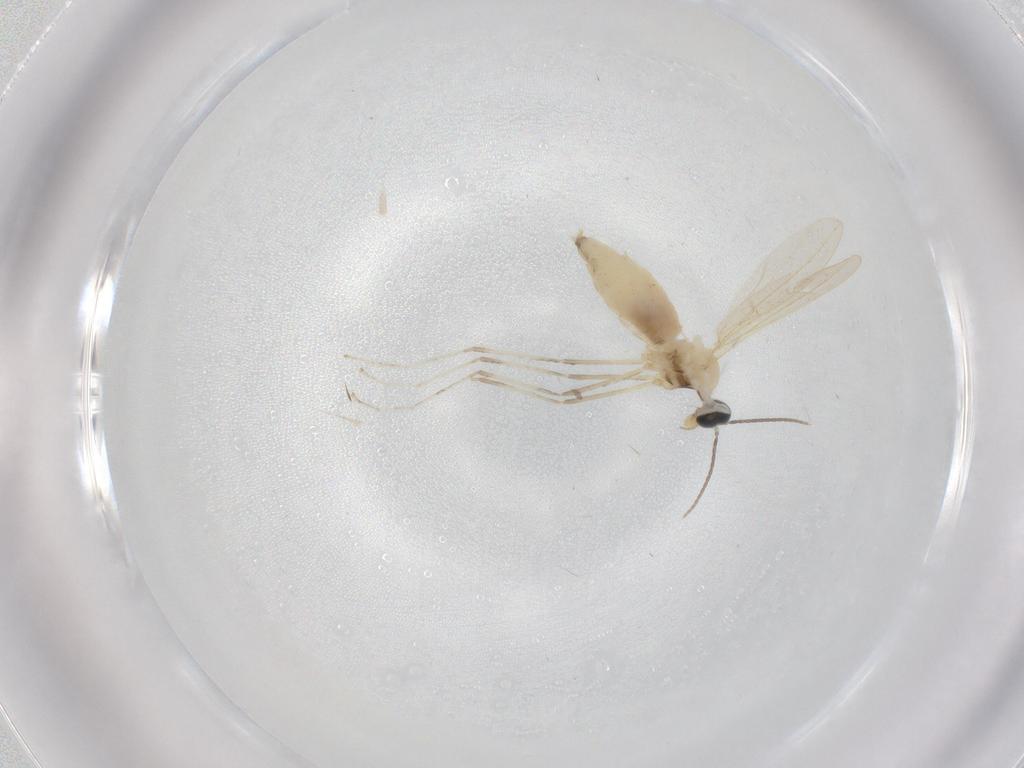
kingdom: Animalia
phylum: Arthropoda
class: Insecta
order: Diptera
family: Cecidomyiidae
